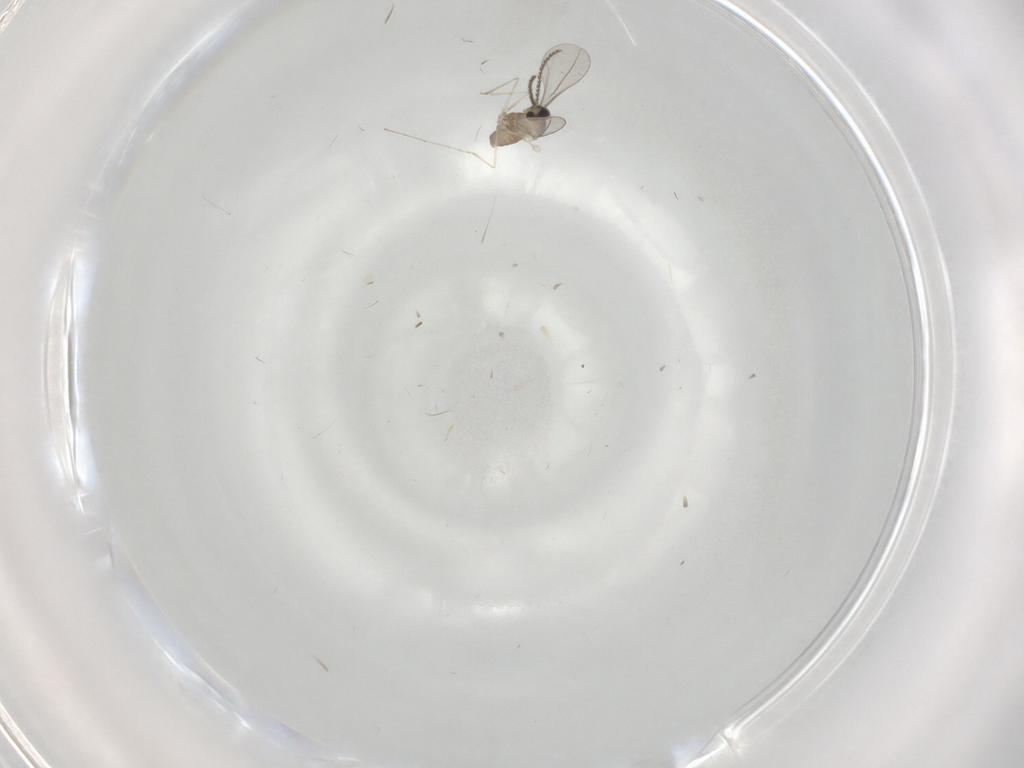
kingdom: Animalia
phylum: Arthropoda
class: Insecta
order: Diptera
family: Cecidomyiidae
